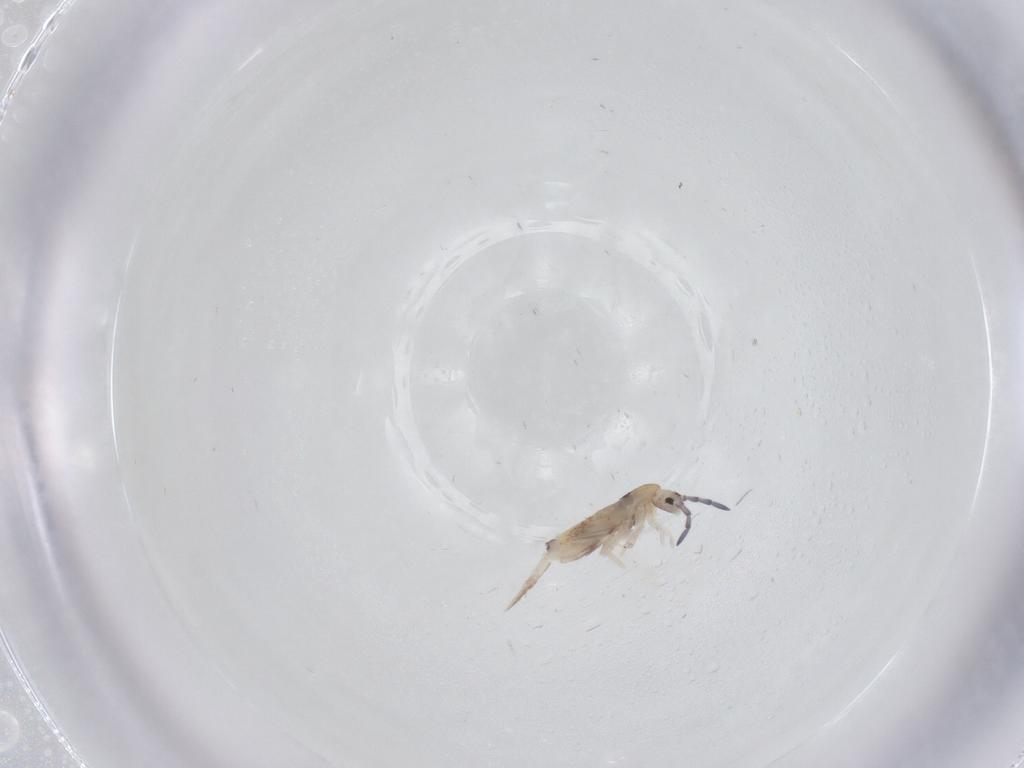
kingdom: Animalia
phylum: Arthropoda
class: Collembola
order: Entomobryomorpha
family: Entomobryidae
